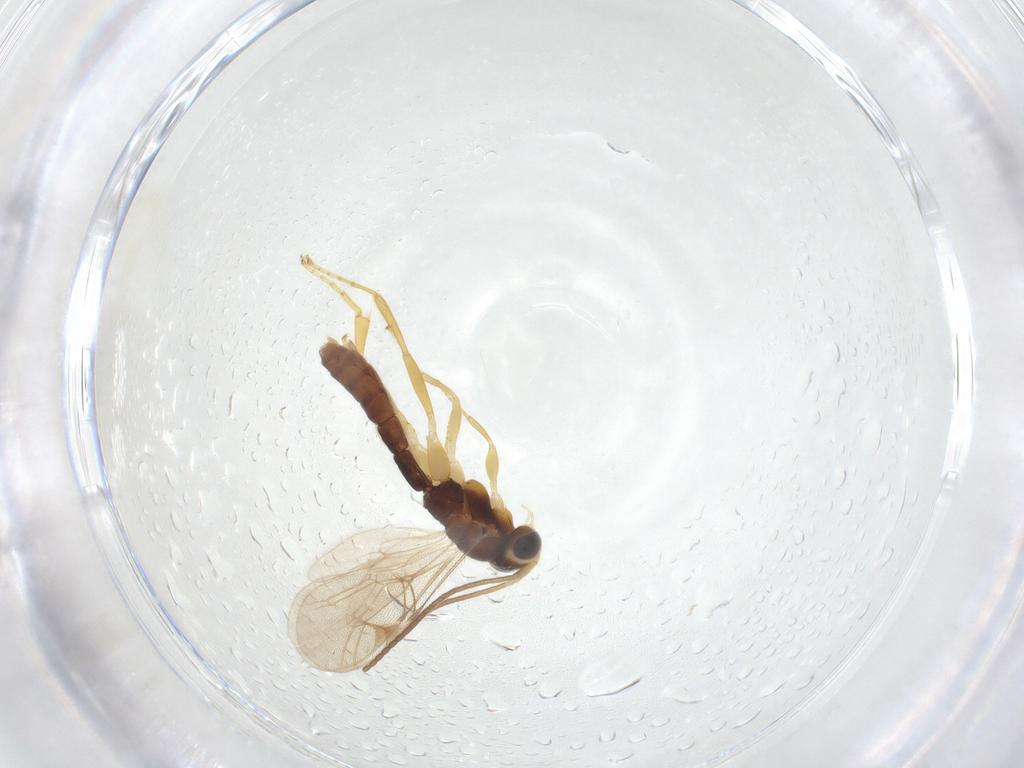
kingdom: Animalia
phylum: Arthropoda
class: Insecta
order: Hymenoptera
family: Ichneumonidae
